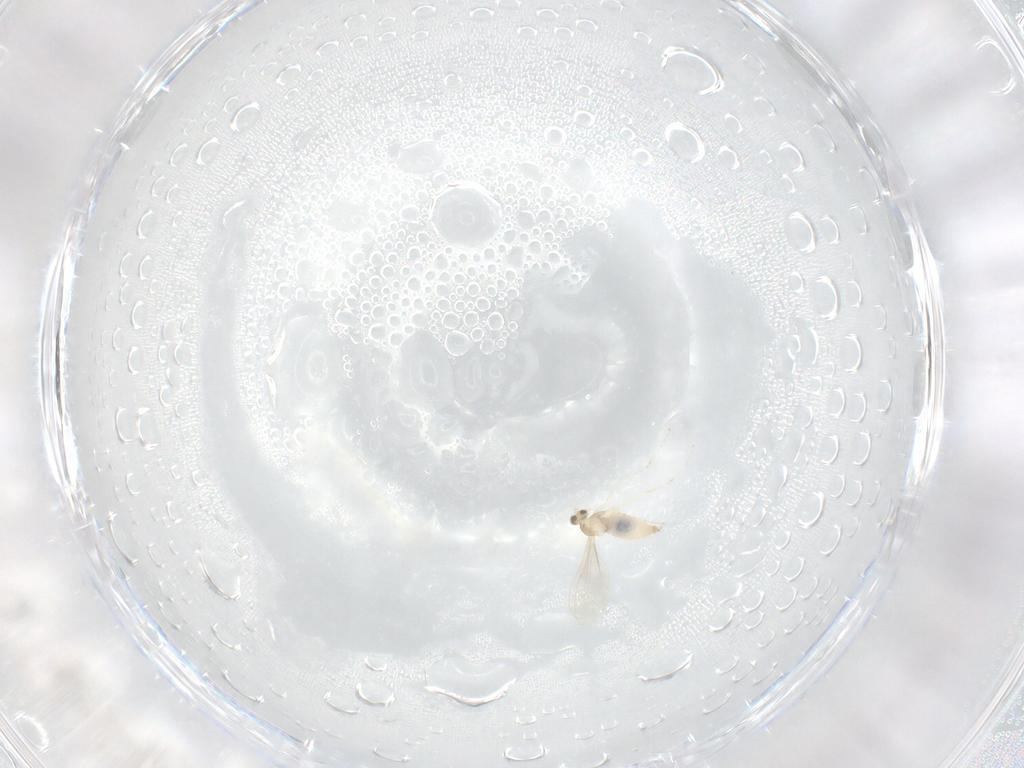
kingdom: Animalia
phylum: Arthropoda
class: Insecta
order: Diptera
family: Cecidomyiidae
